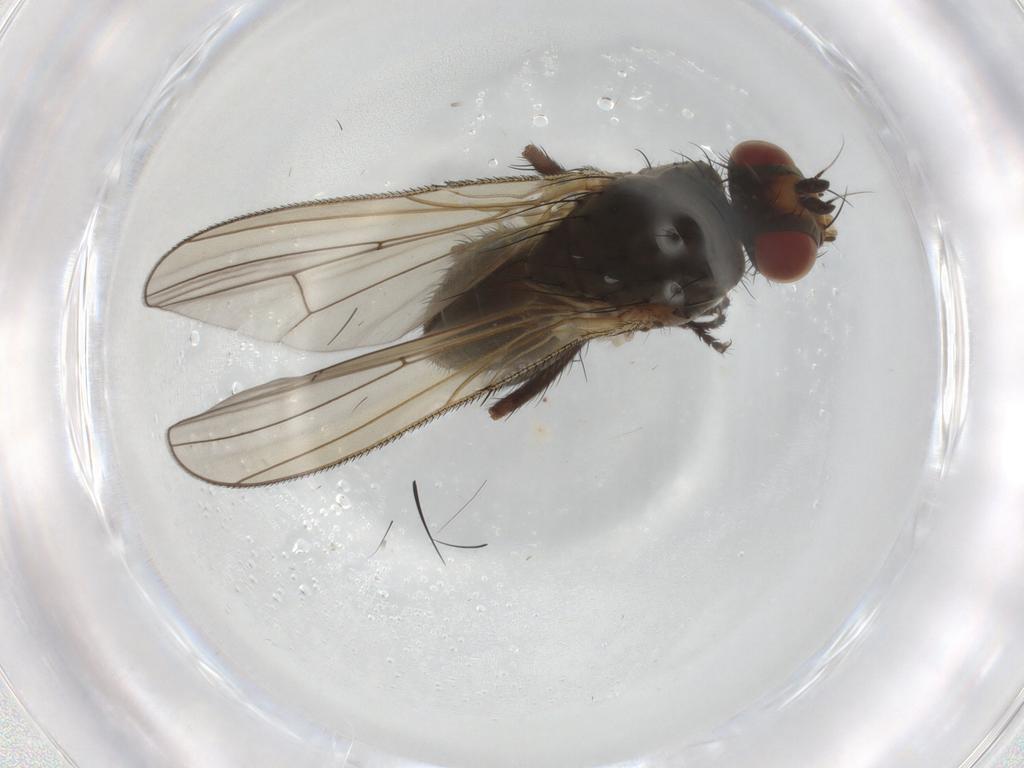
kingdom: Animalia
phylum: Arthropoda
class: Insecta
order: Diptera
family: Anthomyiidae
